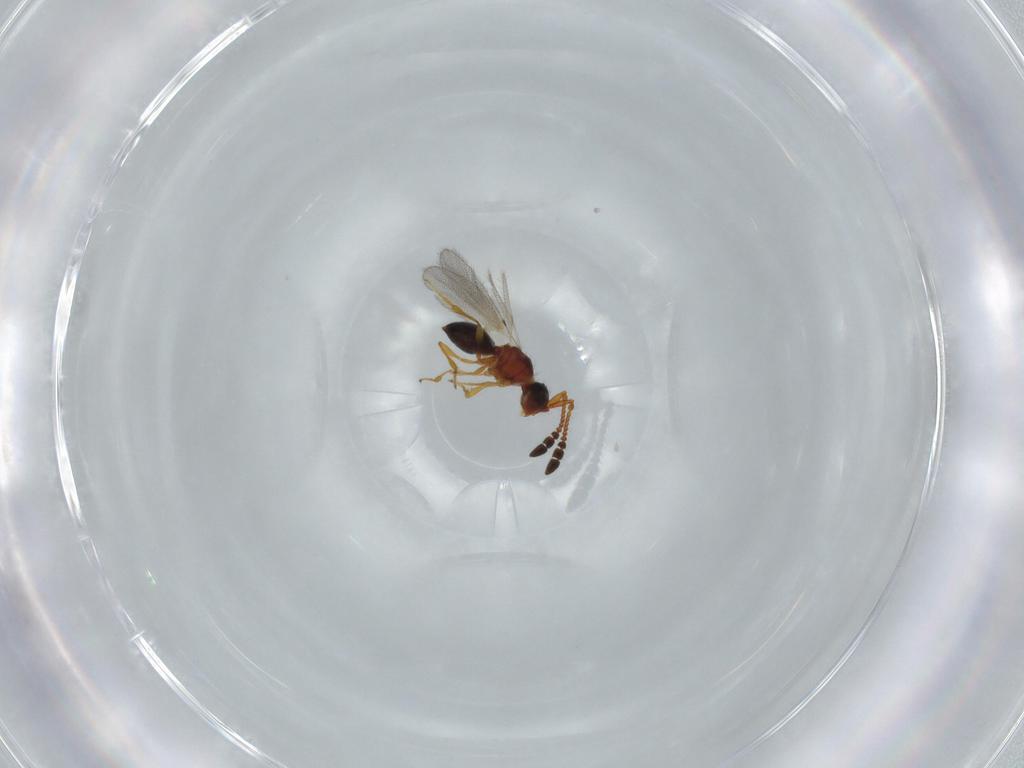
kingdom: Animalia
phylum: Arthropoda
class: Insecta
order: Hymenoptera
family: Diapriidae
